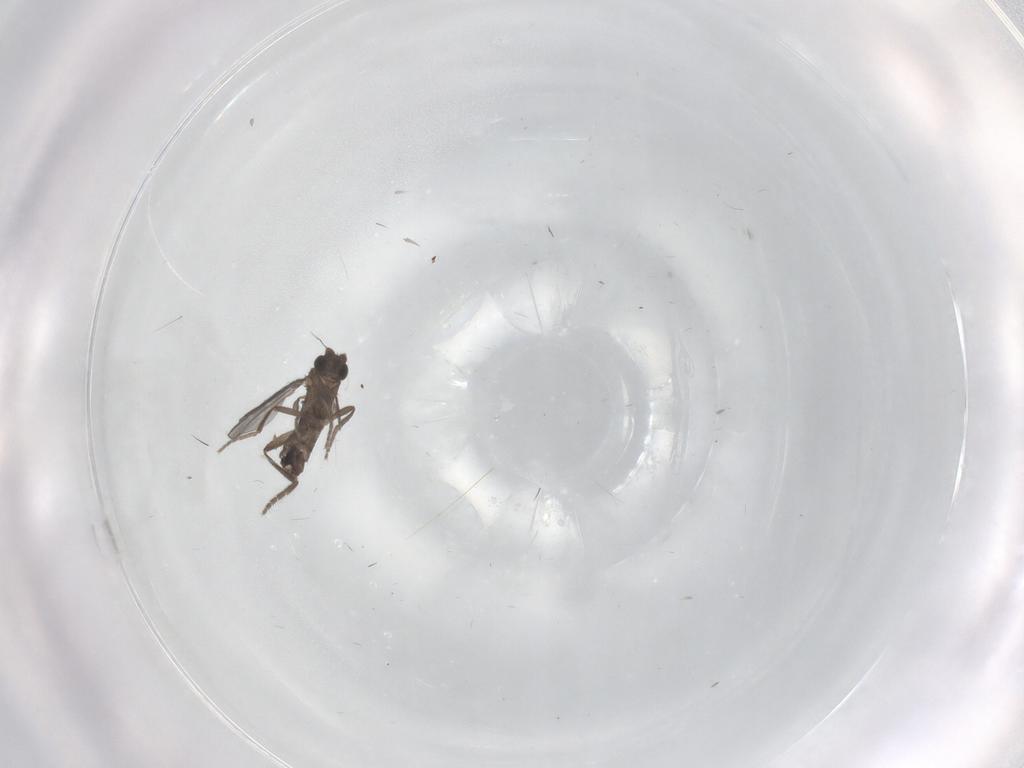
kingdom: Animalia
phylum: Arthropoda
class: Insecta
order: Diptera
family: Phoridae
